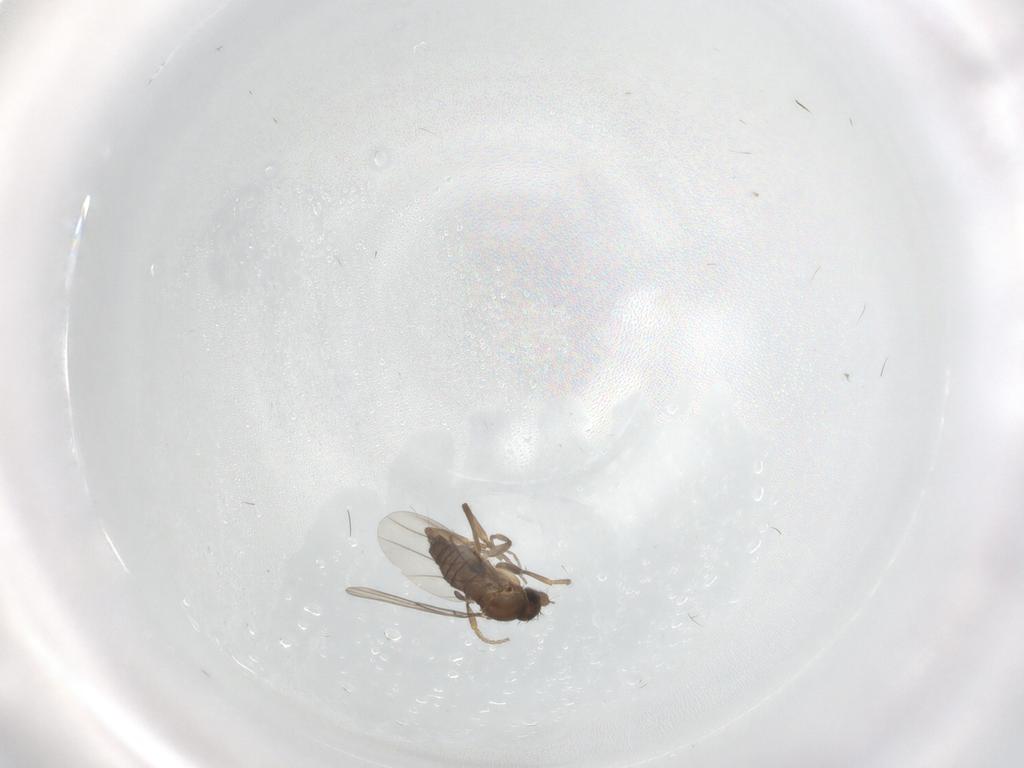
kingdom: Animalia
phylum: Arthropoda
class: Insecta
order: Diptera
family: Phoridae
